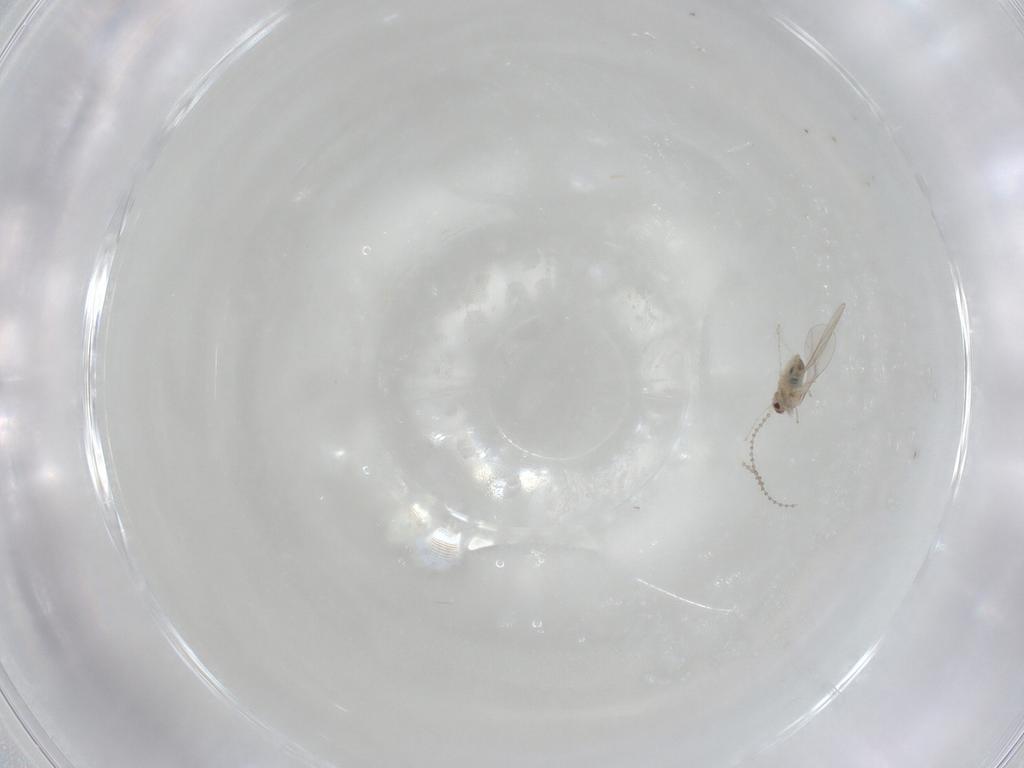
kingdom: Animalia
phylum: Arthropoda
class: Insecta
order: Diptera
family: Cecidomyiidae
